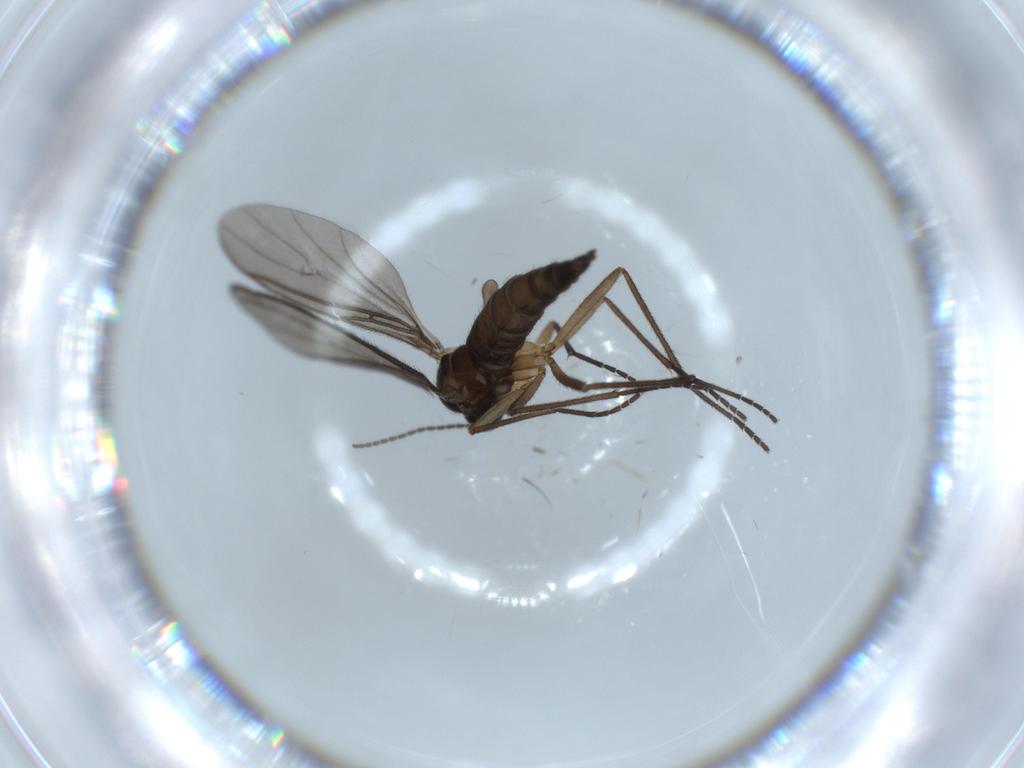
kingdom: Animalia
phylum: Arthropoda
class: Insecta
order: Diptera
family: Sciaridae
